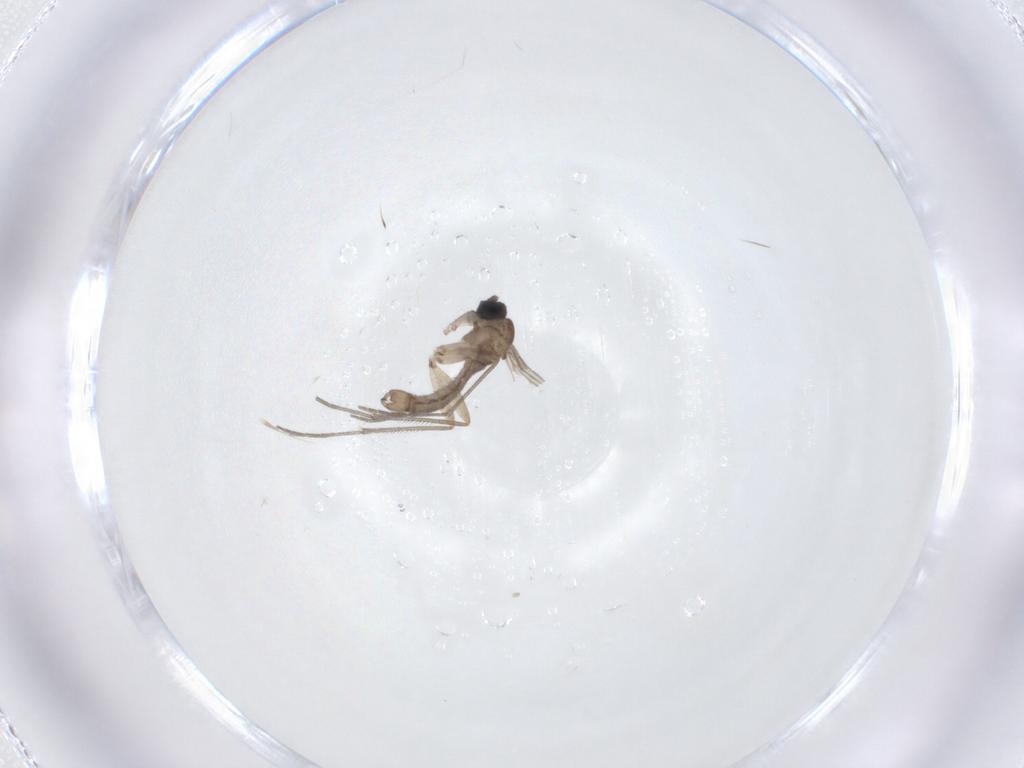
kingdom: Animalia
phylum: Arthropoda
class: Insecta
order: Diptera
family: Sciaridae
